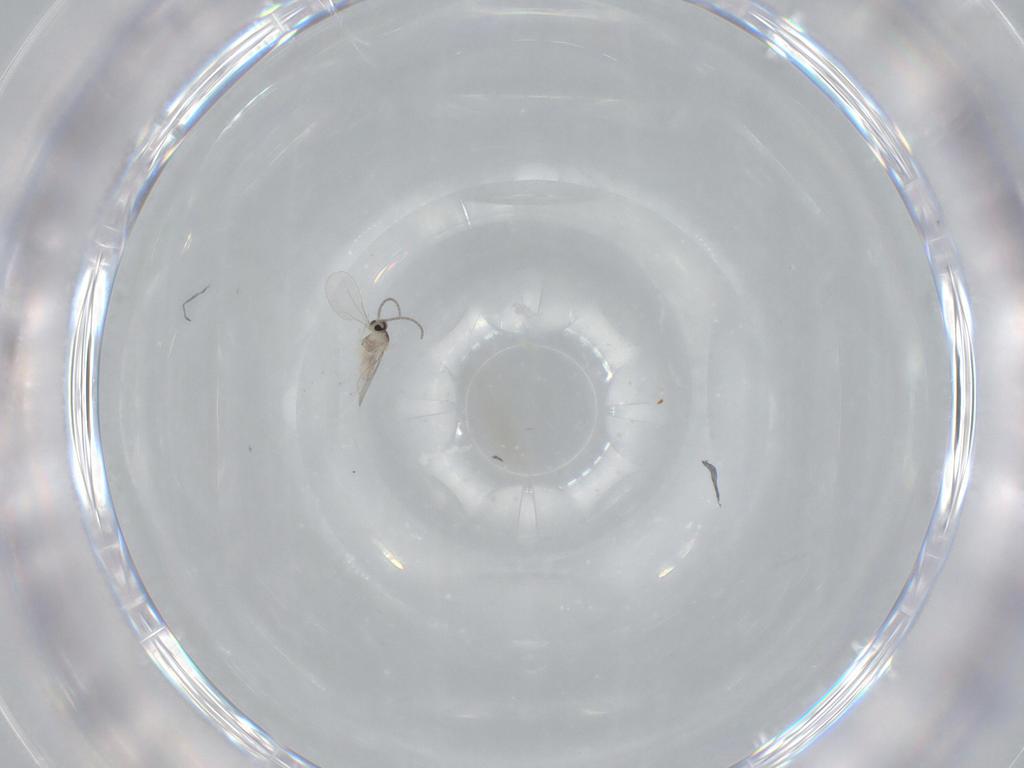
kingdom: Animalia
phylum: Arthropoda
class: Insecta
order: Diptera
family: Cecidomyiidae
